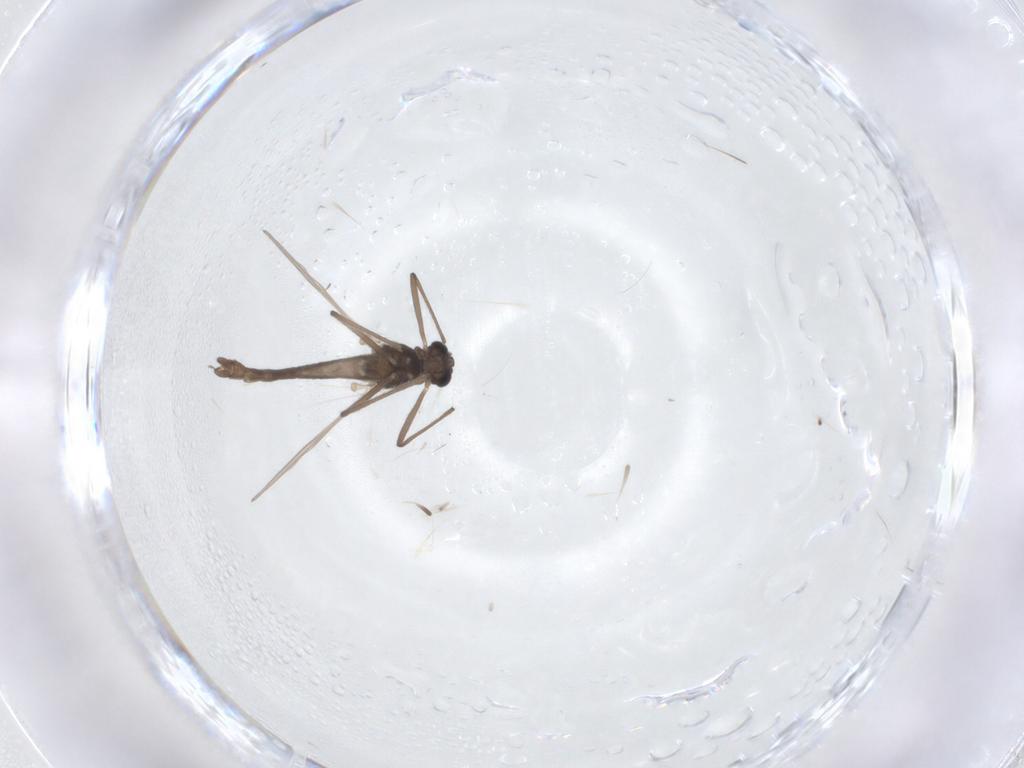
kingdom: Animalia
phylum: Arthropoda
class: Insecta
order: Diptera
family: Chironomidae
